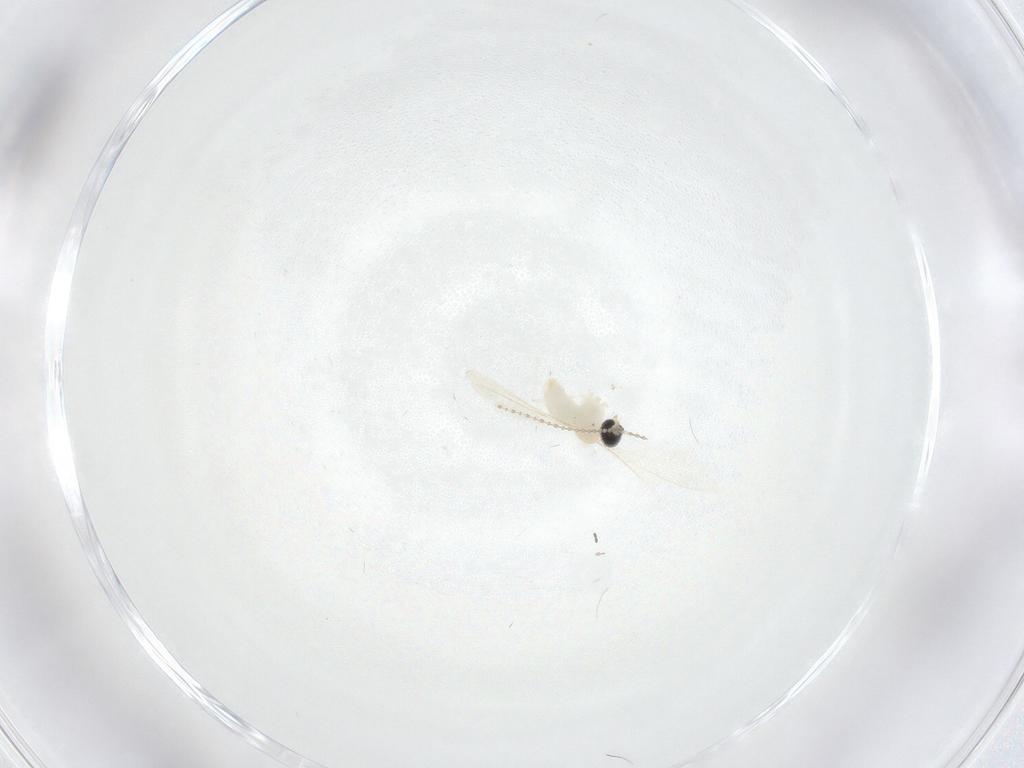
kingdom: Animalia
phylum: Arthropoda
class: Insecta
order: Diptera
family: Cecidomyiidae
